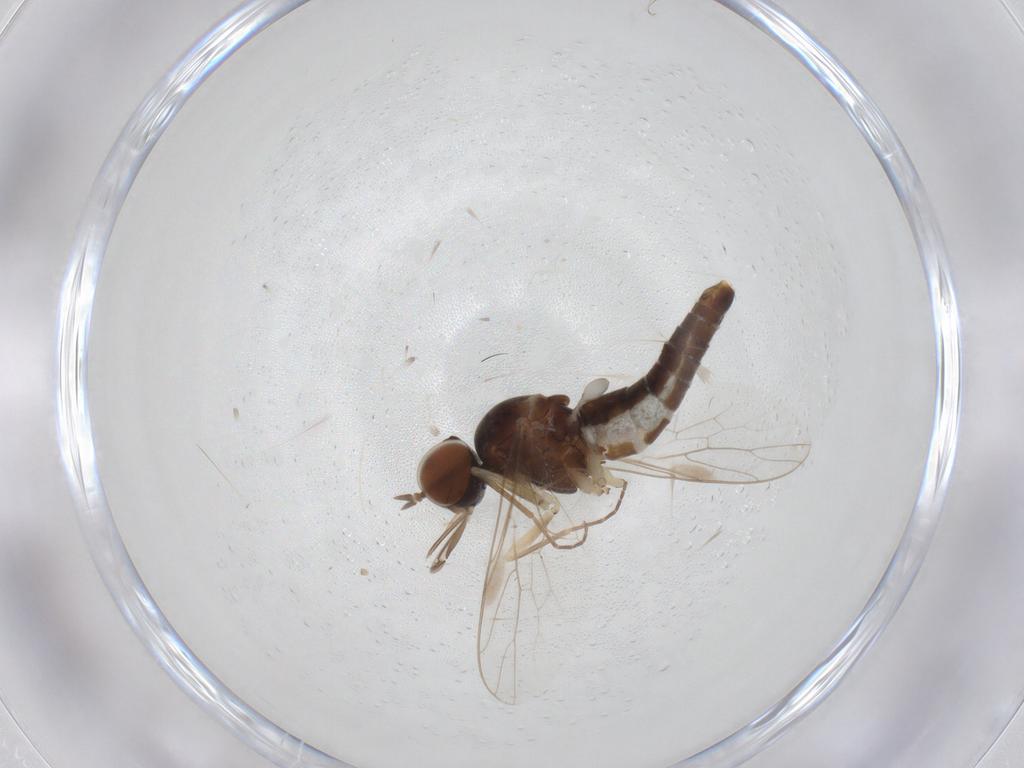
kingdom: Animalia
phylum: Arthropoda
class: Insecta
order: Diptera
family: Scenopinidae
